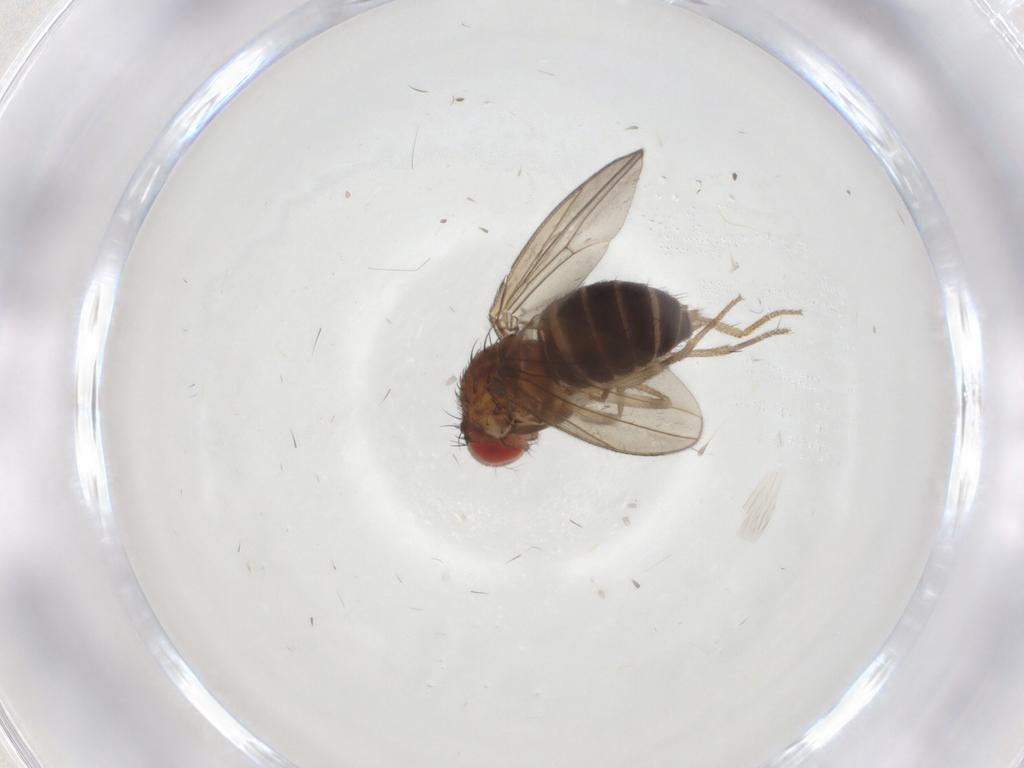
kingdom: Animalia
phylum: Arthropoda
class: Insecta
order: Diptera
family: Drosophilidae
